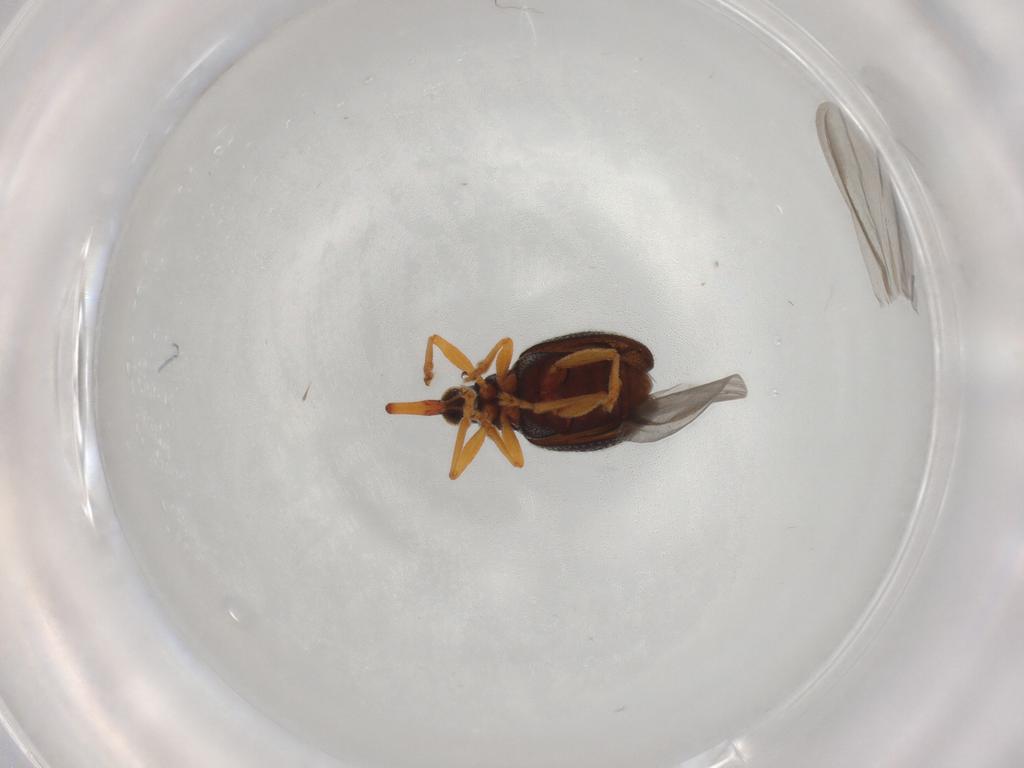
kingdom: Animalia
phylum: Arthropoda
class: Insecta
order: Coleoptera
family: Brentidae
